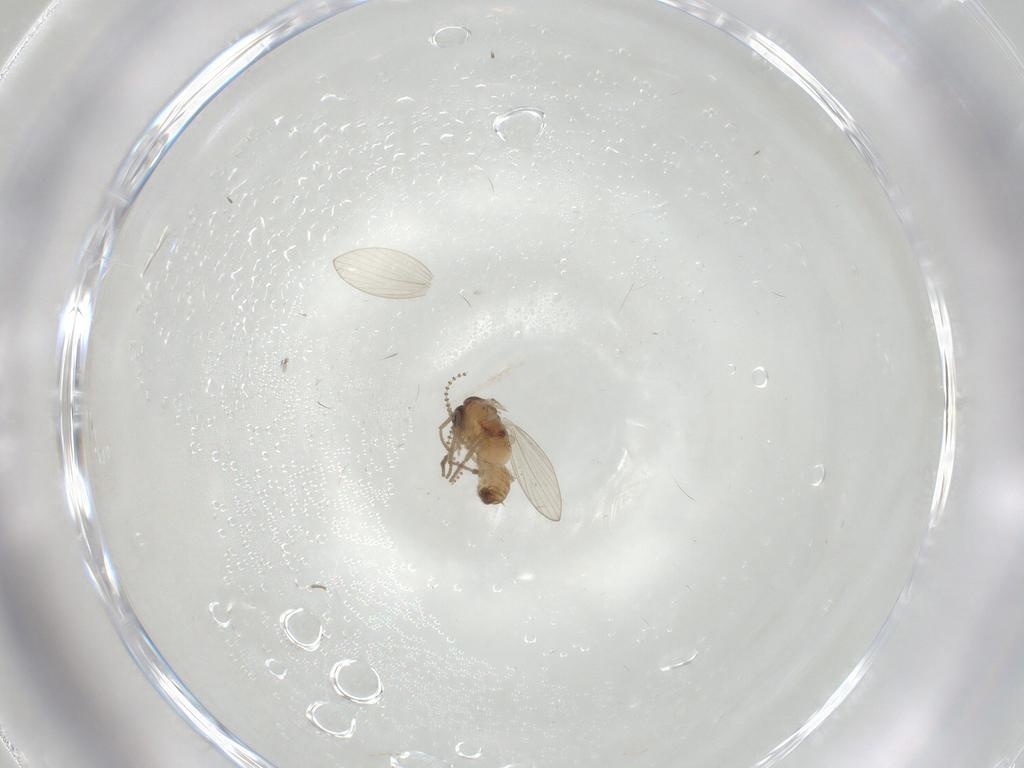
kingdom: Animalia
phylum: Arthropoda
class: Insecta
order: Diptera
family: Psychodidae
